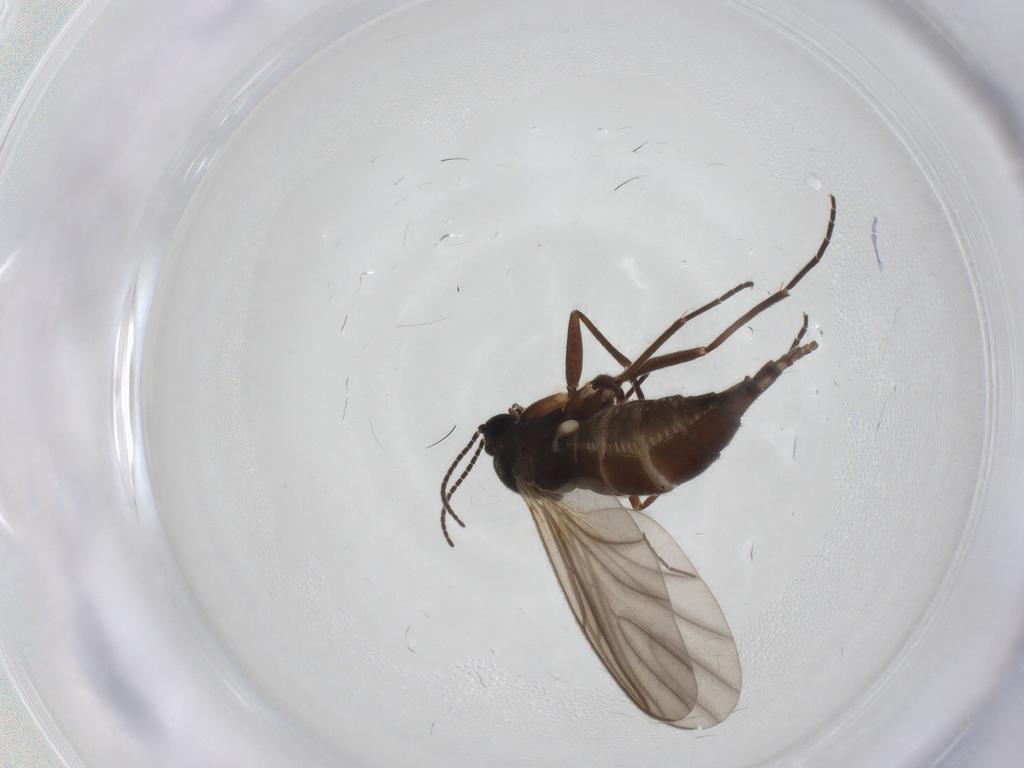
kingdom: Animalia
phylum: Arthropoda
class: Insecta
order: Diptera
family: Sciaridae
